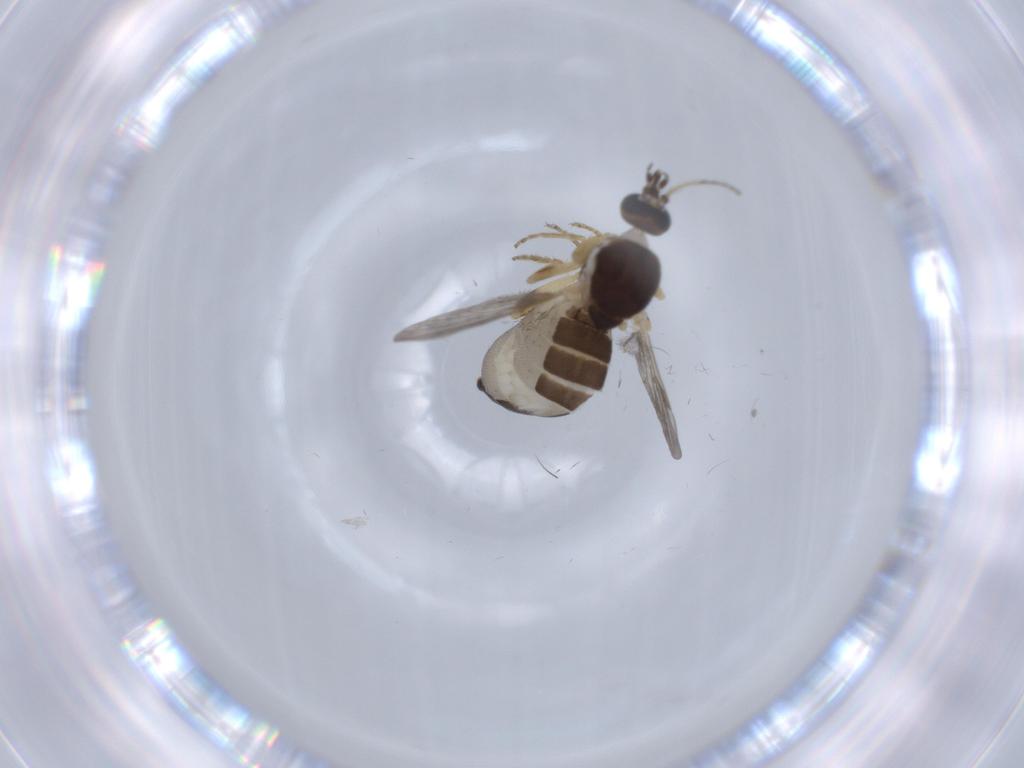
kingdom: Animalia
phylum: Arthropoda
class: Insecta
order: Diptera
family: Ceratopogonidae
